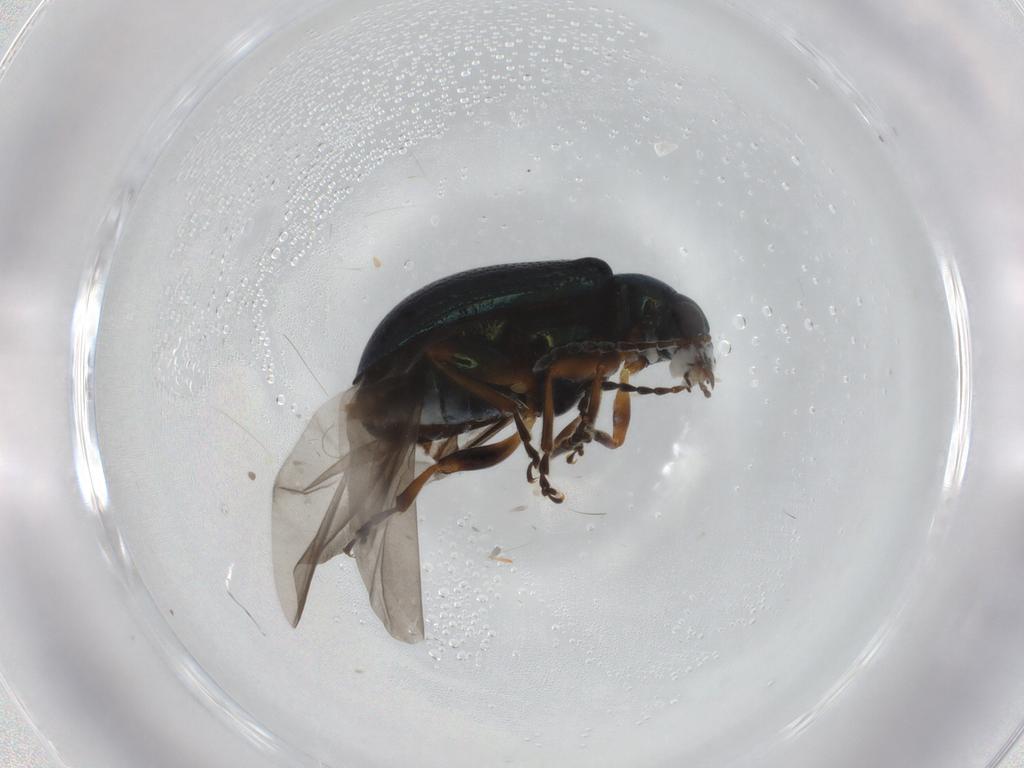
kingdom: Animalia
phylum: Arthropoda
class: Insecta
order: Coleoptera
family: Chrysomelidae
